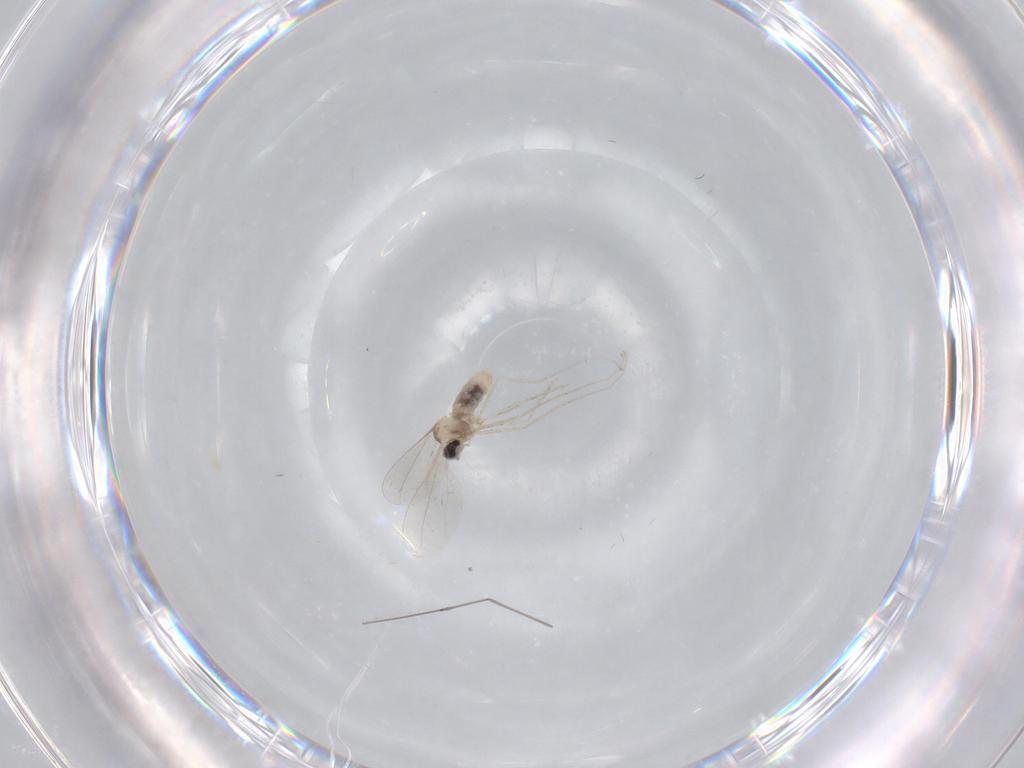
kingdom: Animalia
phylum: Arthropoda
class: Insecta
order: Diptera
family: Cecidomyiidae
